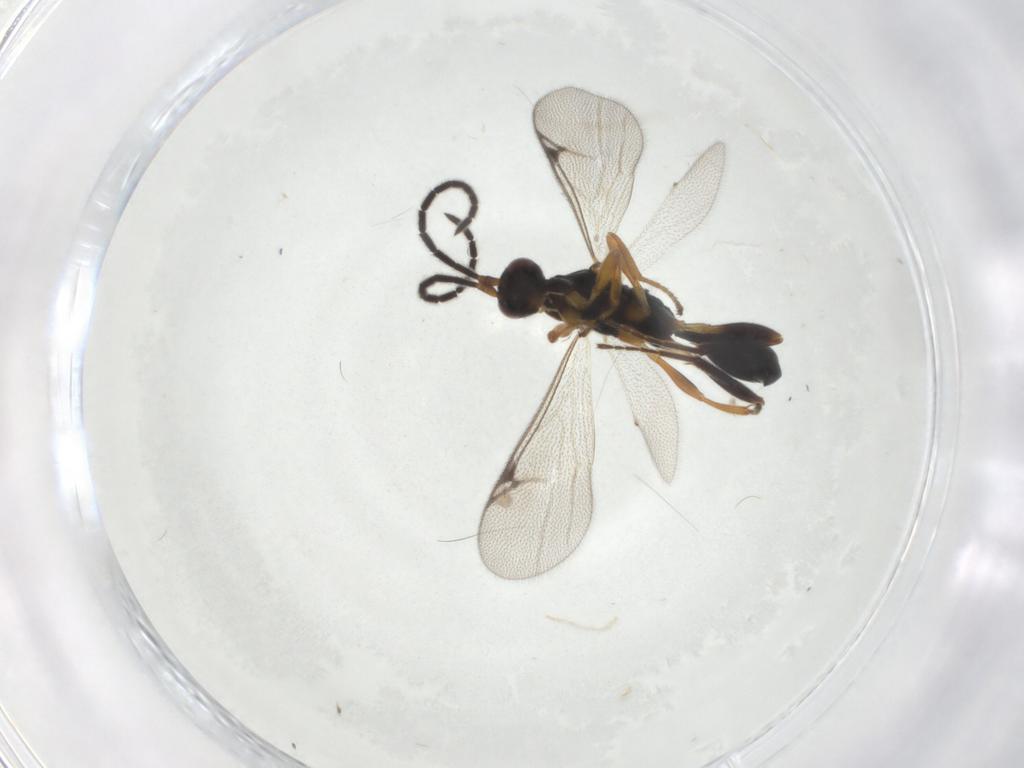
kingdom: Animalia
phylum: Arthropoda
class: Insecta
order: Hymenoptera
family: Proctotrupidae
